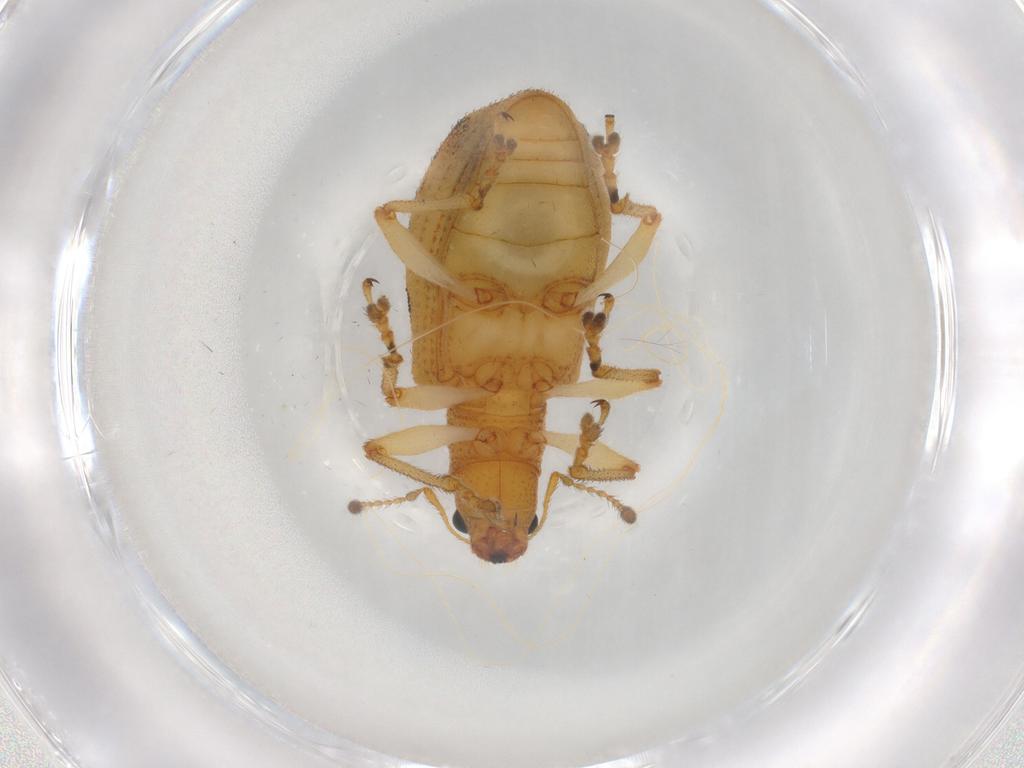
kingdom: Animalia
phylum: Arthropoda
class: Insecta
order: Coleoptera
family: Curculionidae
